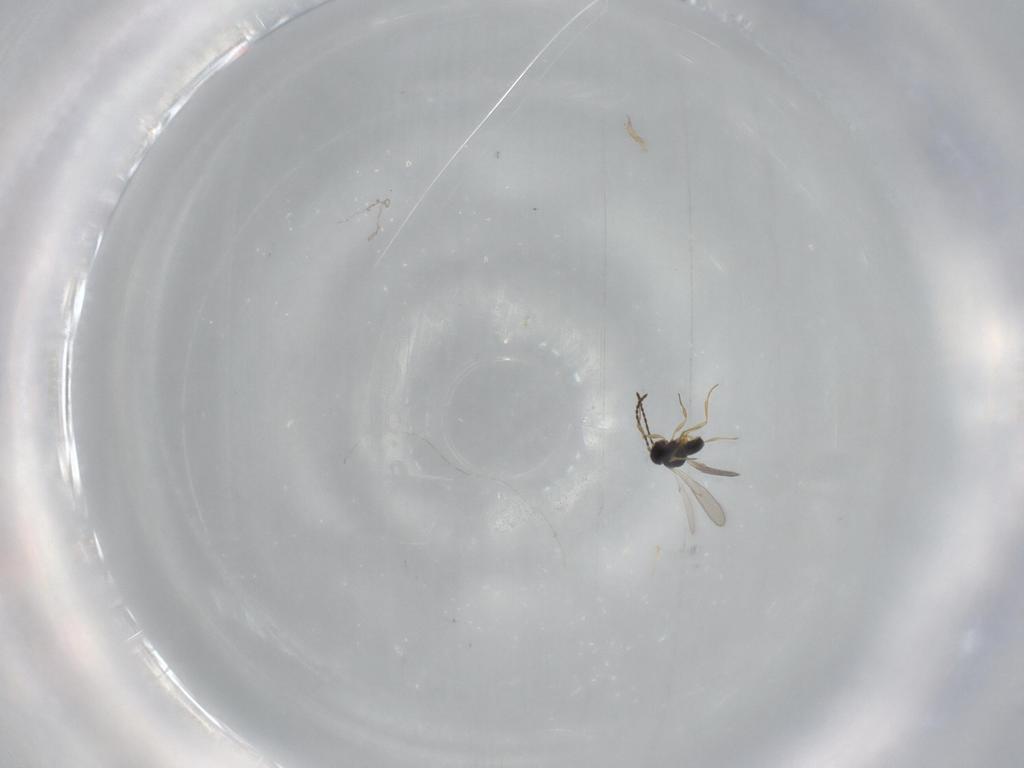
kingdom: Animalia
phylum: Arthropoda
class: Insecta
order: Hymenoptera
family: Scelionidae
